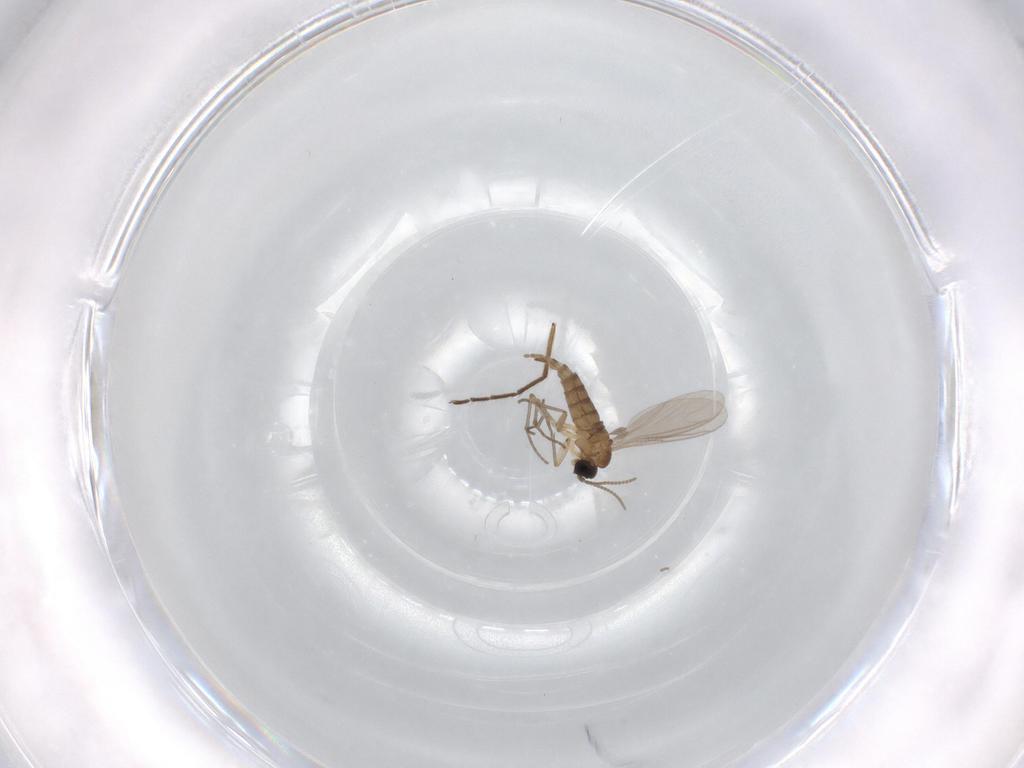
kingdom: Animalia
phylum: Arthropoda
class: Insecta
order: Diptera
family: Sciaridae
